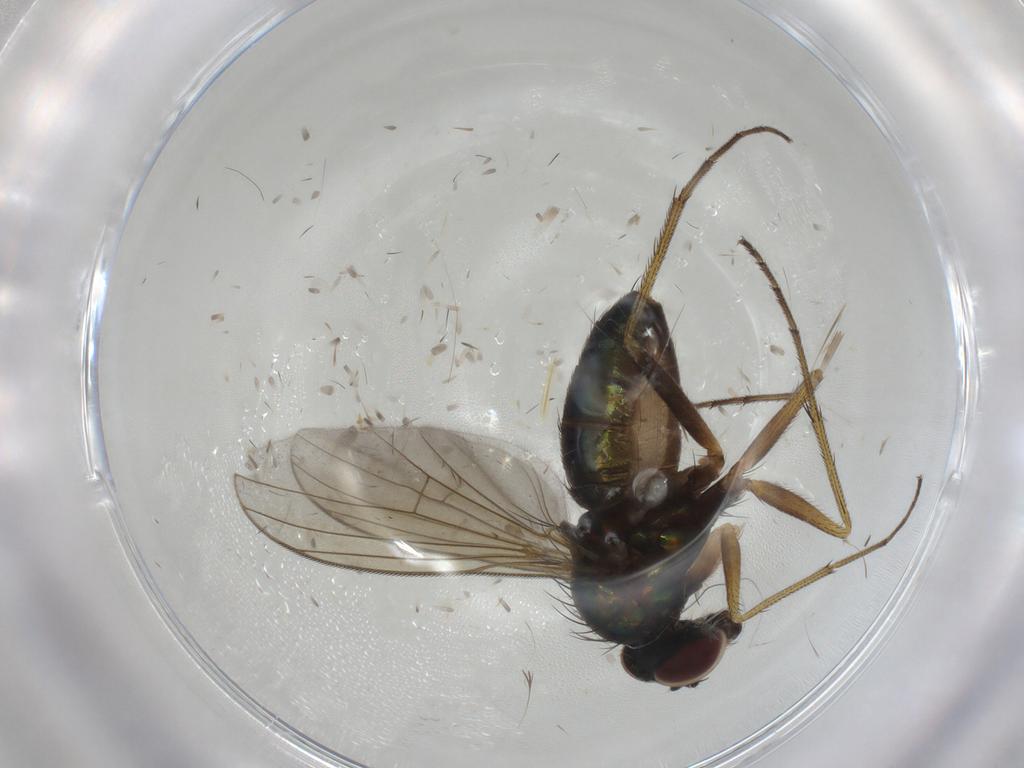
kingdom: Animalia
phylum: Arthropoda
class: Insecta
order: Diptera
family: Dolichopodidae
